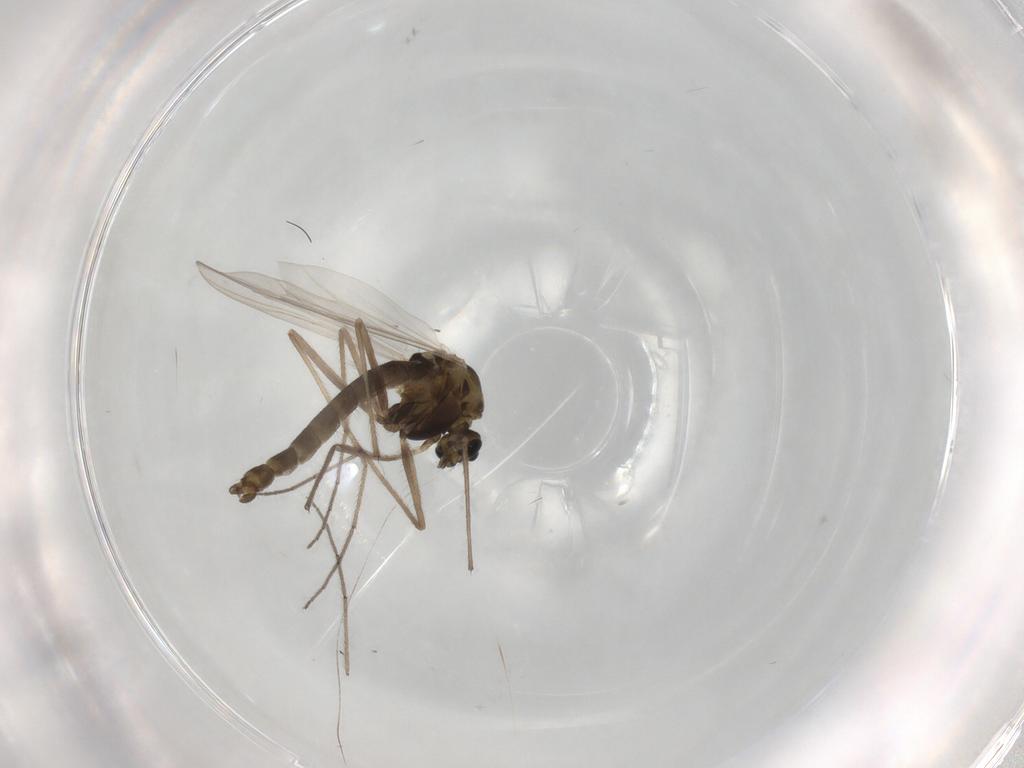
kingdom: Animalia
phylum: Arthropoda
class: Insecta
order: Diptera
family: Chironomidae
